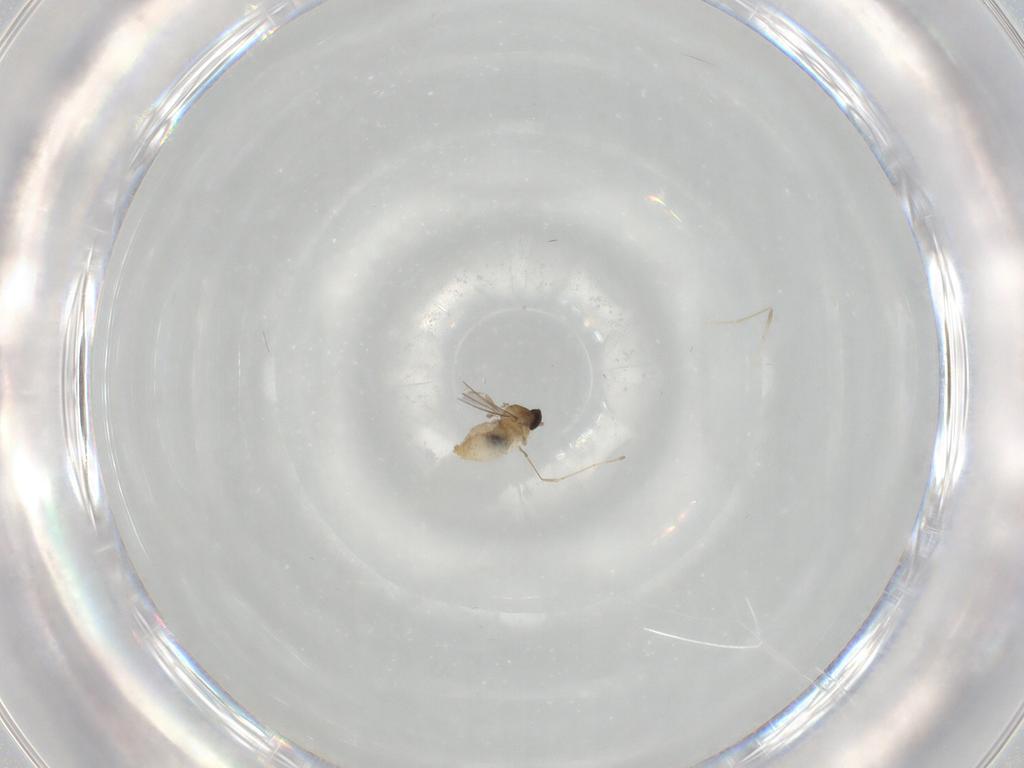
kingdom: Animalia
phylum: Arthropoda
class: Insecta
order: Diptera
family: Cecidomyiidae
